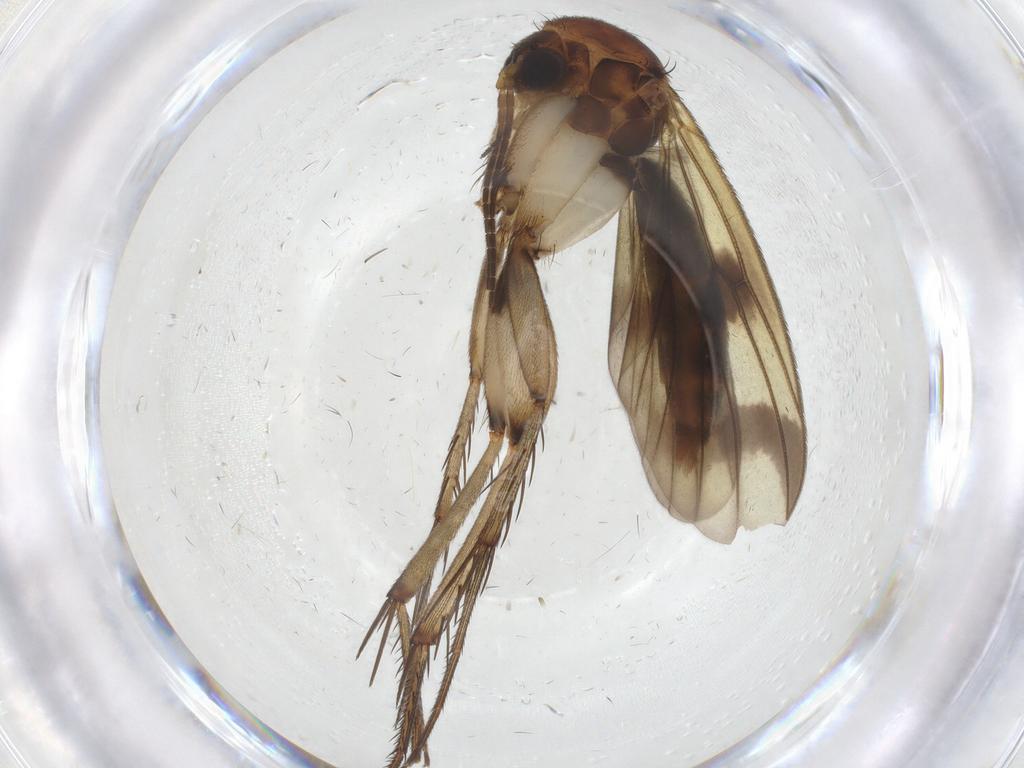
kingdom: Animalia
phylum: Arthropoda
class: Insecta
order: Diptera
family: Sciaridae
